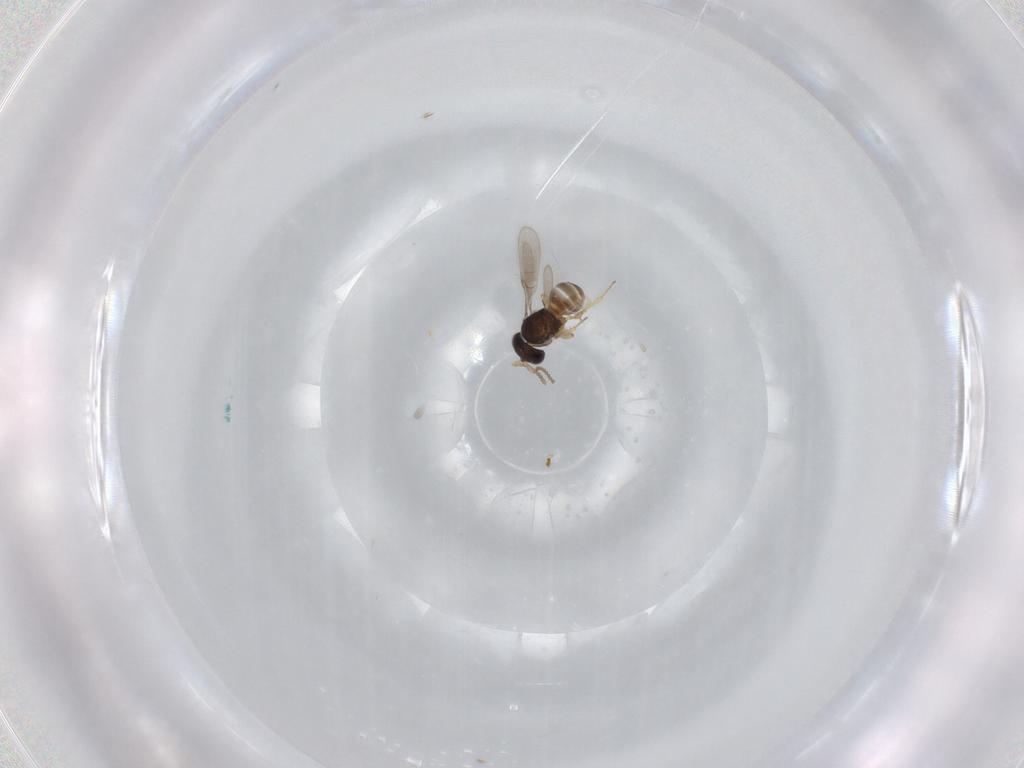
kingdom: Animalia
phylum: Arthropoda
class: Insecta
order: Hymenoptera
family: Scelionidae
